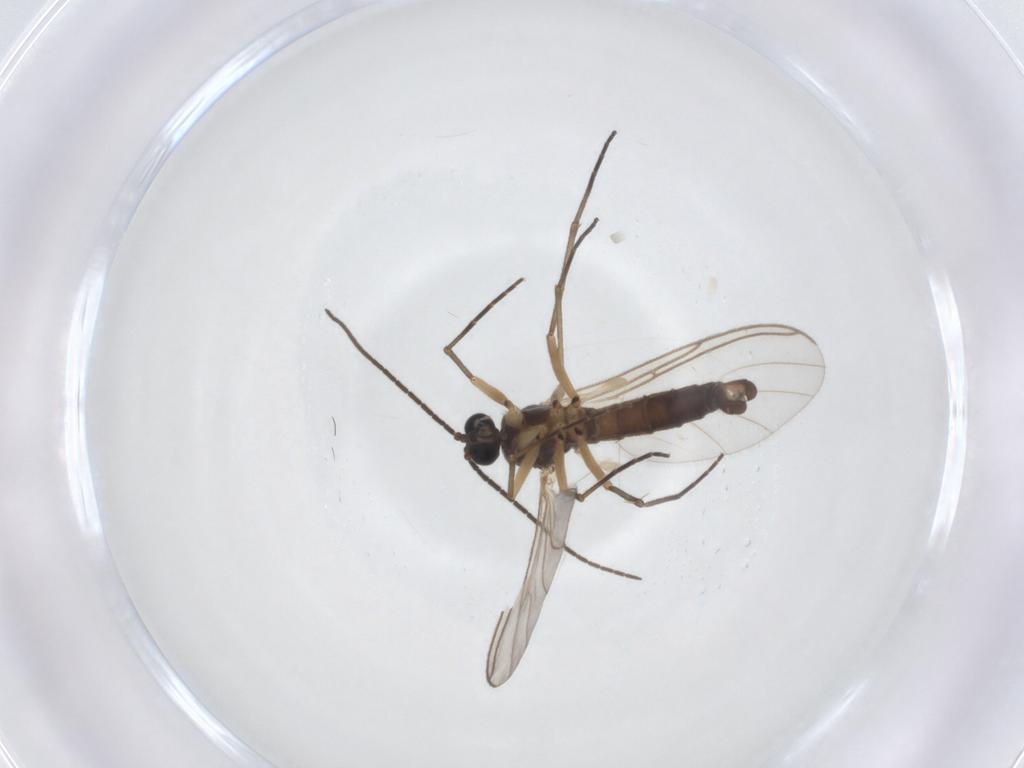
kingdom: Animalia
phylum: Arthropoda
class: Insecta
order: Diptera
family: Sciaridae
